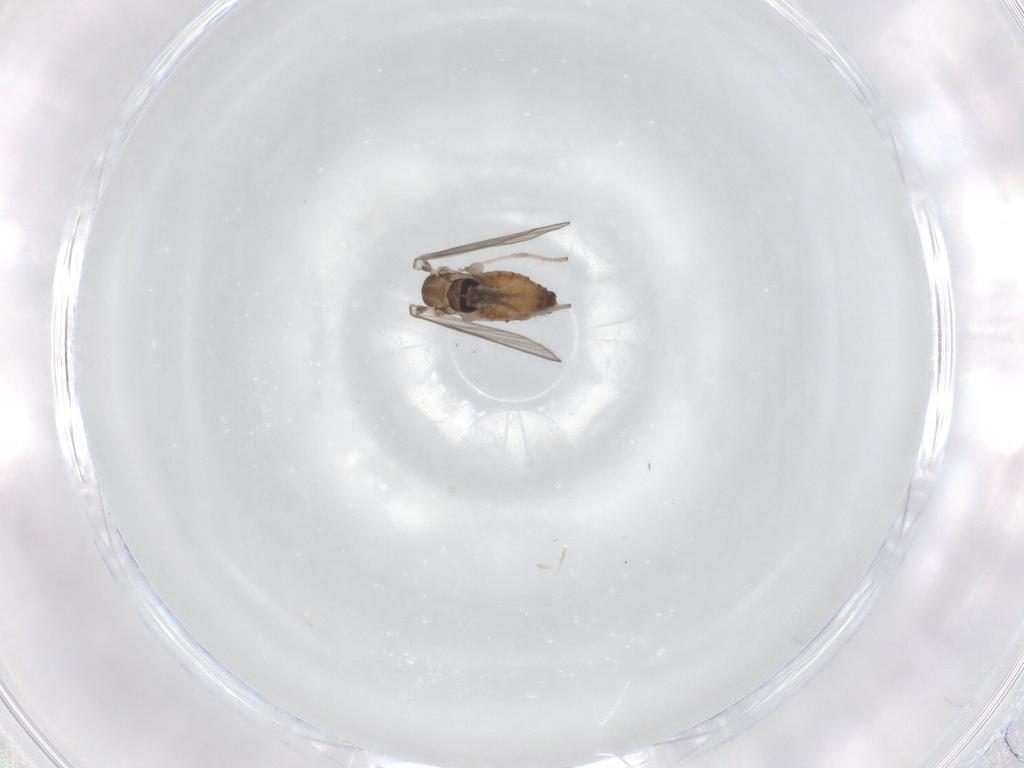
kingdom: Animalia
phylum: Arthropoda
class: Insecta
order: Diptera
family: Psychodidae
